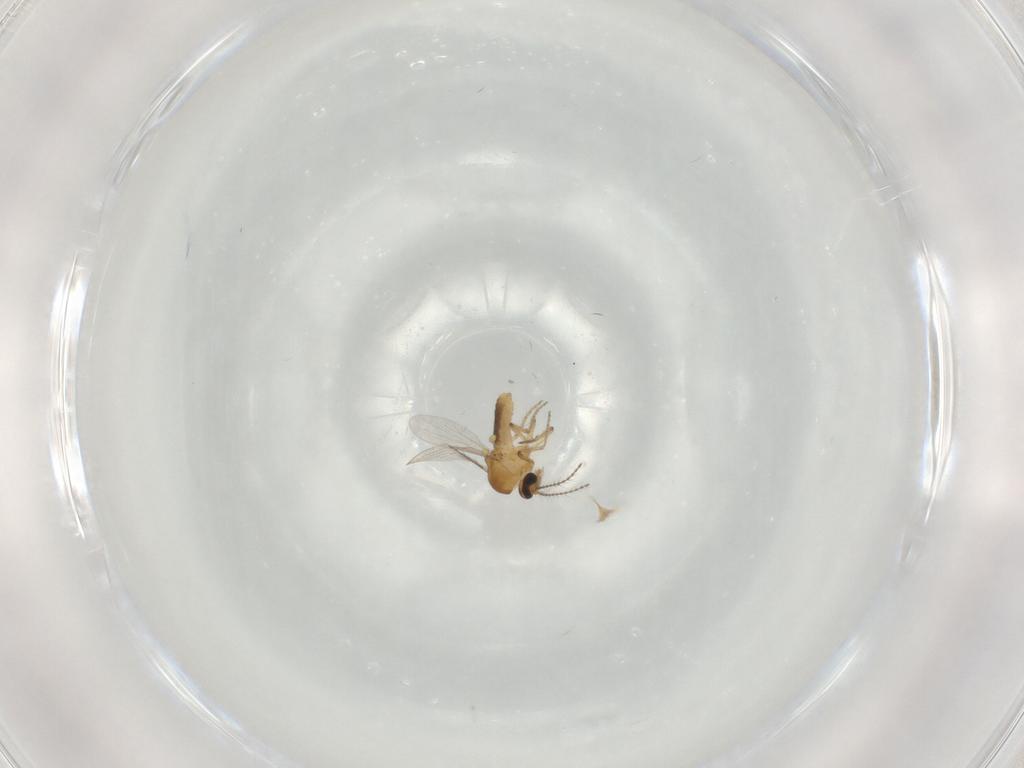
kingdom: Animalia
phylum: Arthropoda
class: Insecta
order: Diptera
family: Ceratopogonidae
